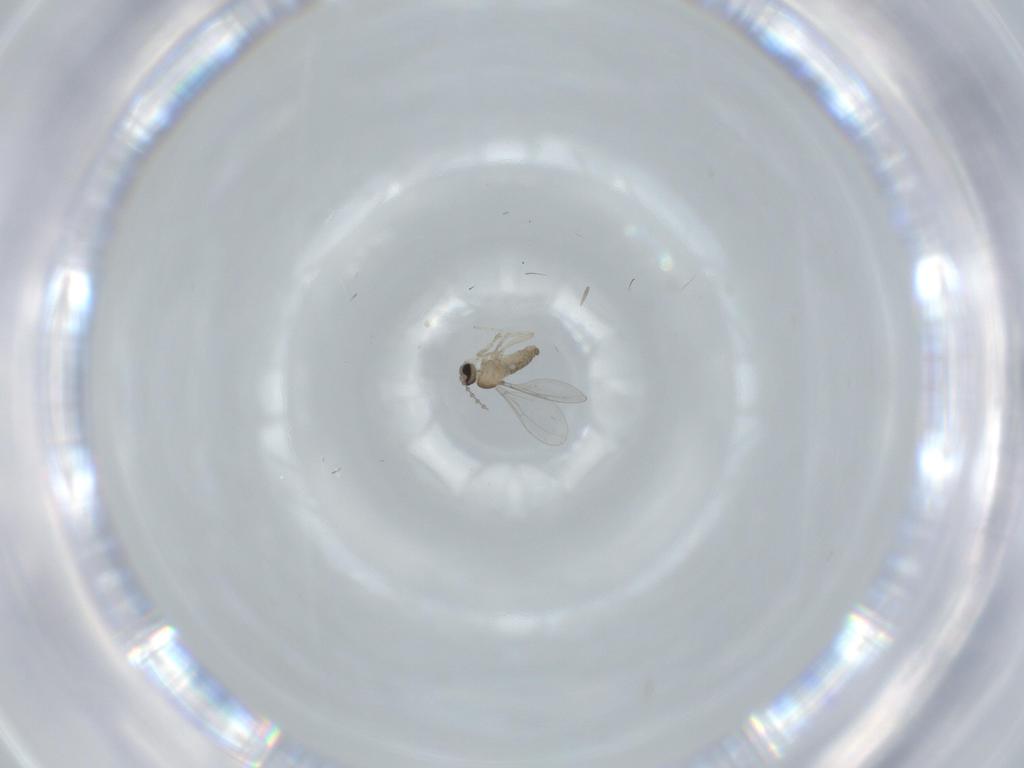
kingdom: Animalia
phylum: Arthropoda
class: Insecta
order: Diptera
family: Cecidomyiidae
